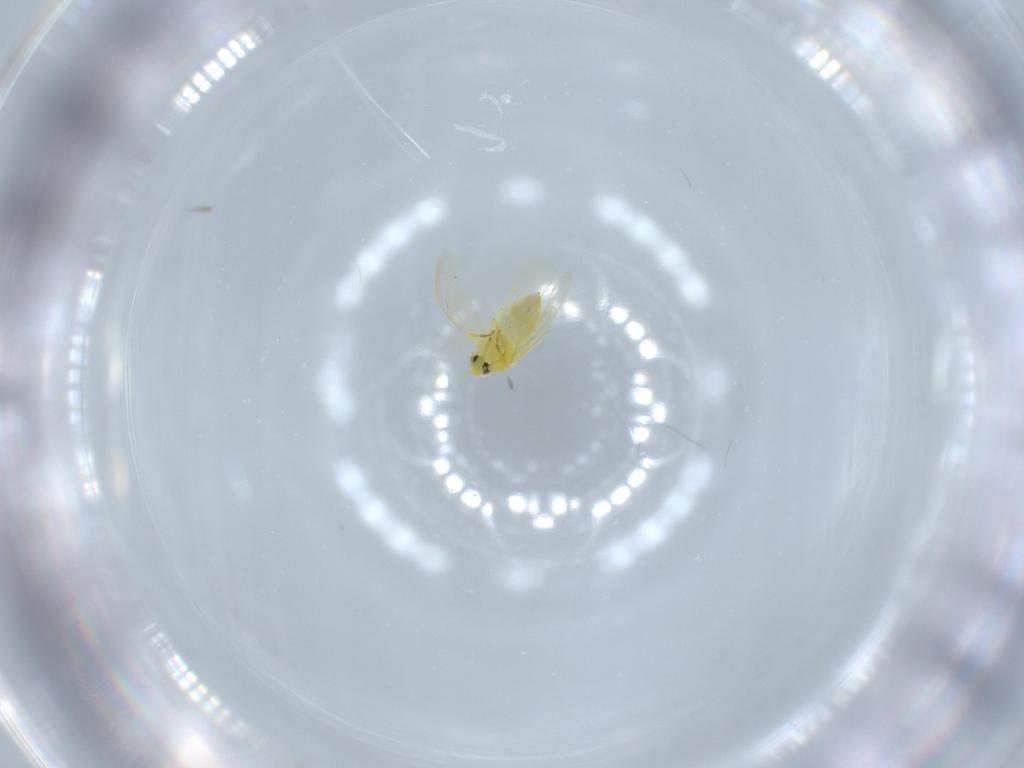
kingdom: Animalia
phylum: Arthropoda
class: Insecta
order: Hemiptera
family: Aleyrodidae
